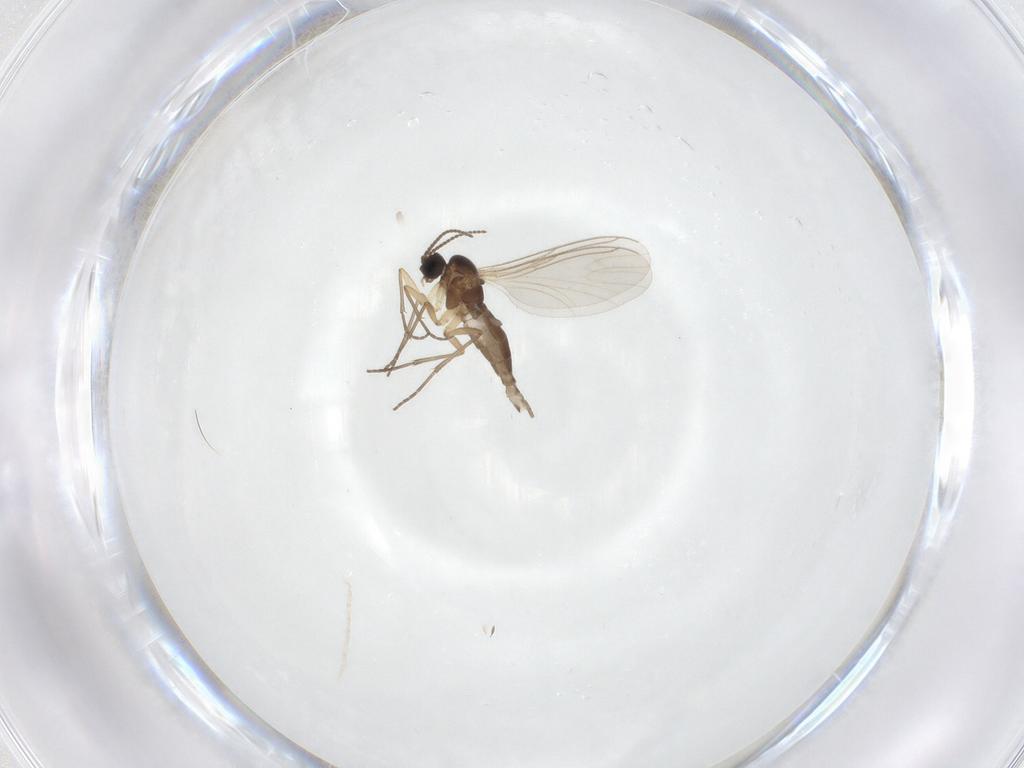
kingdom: Animalia
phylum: Arthropoda
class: Insecta
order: Diptera
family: Sciaridae
